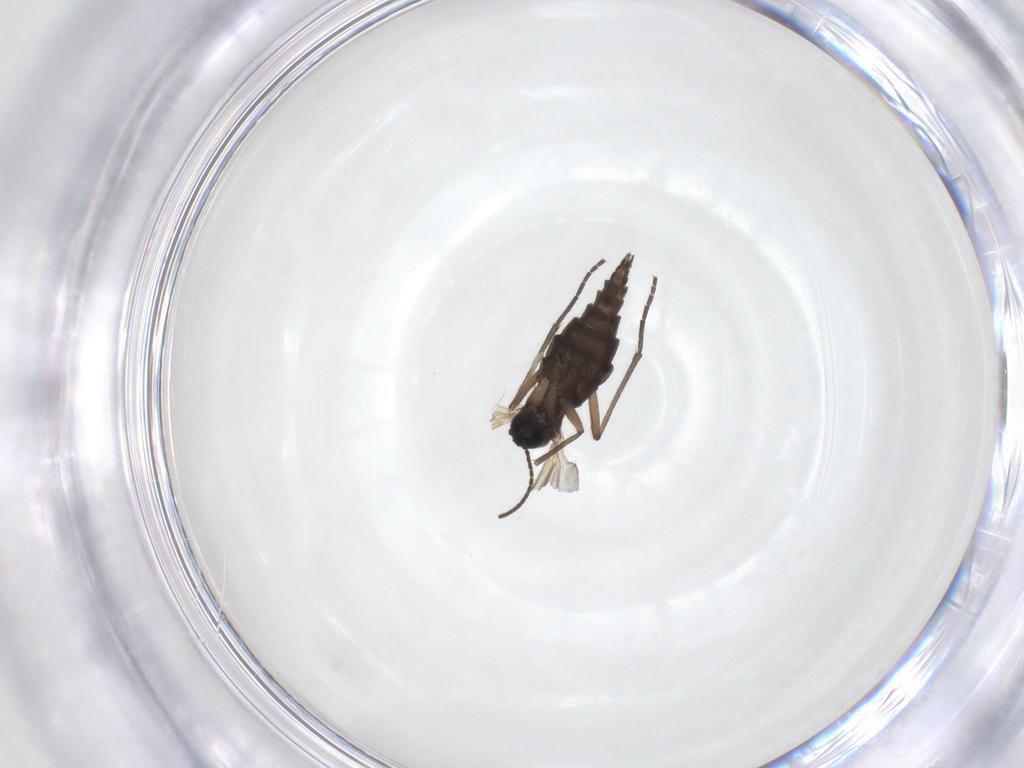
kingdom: Animalia
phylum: Arthropoda
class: Insecta
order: Diptera
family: Sciaridae
